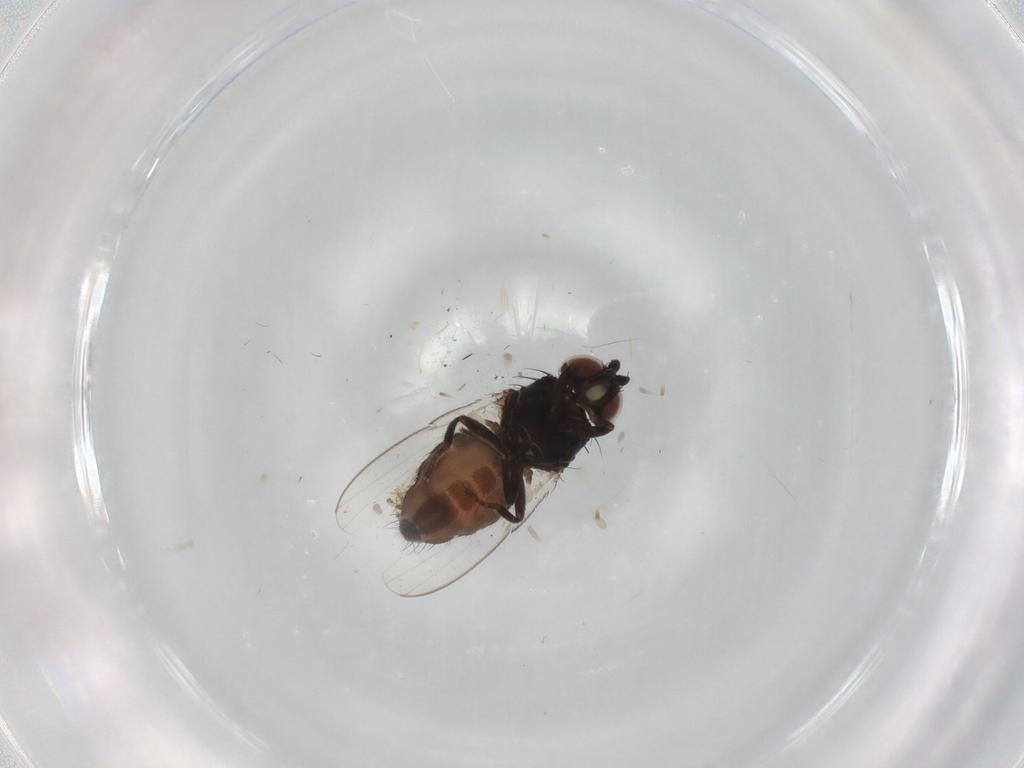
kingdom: Animalia
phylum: Arthropoda
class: Insecta
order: Diptera
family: Milichiidae
